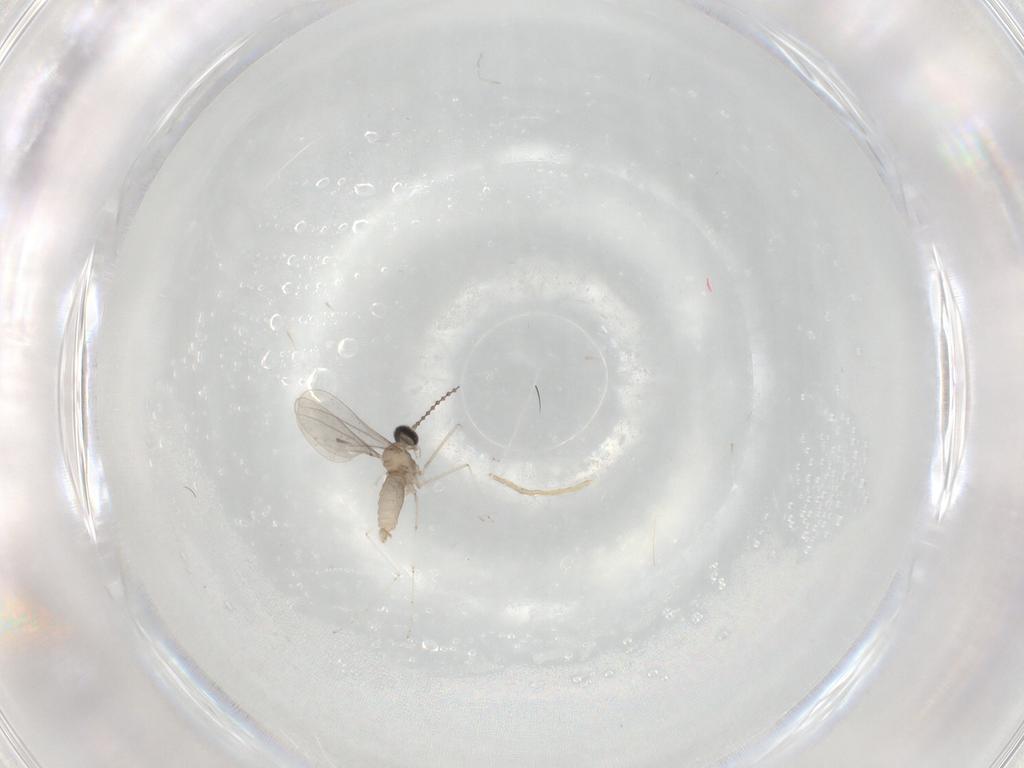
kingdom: Animalia
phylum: Arthropoda
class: Insecta
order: Diptera
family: Cecidomyiidae
